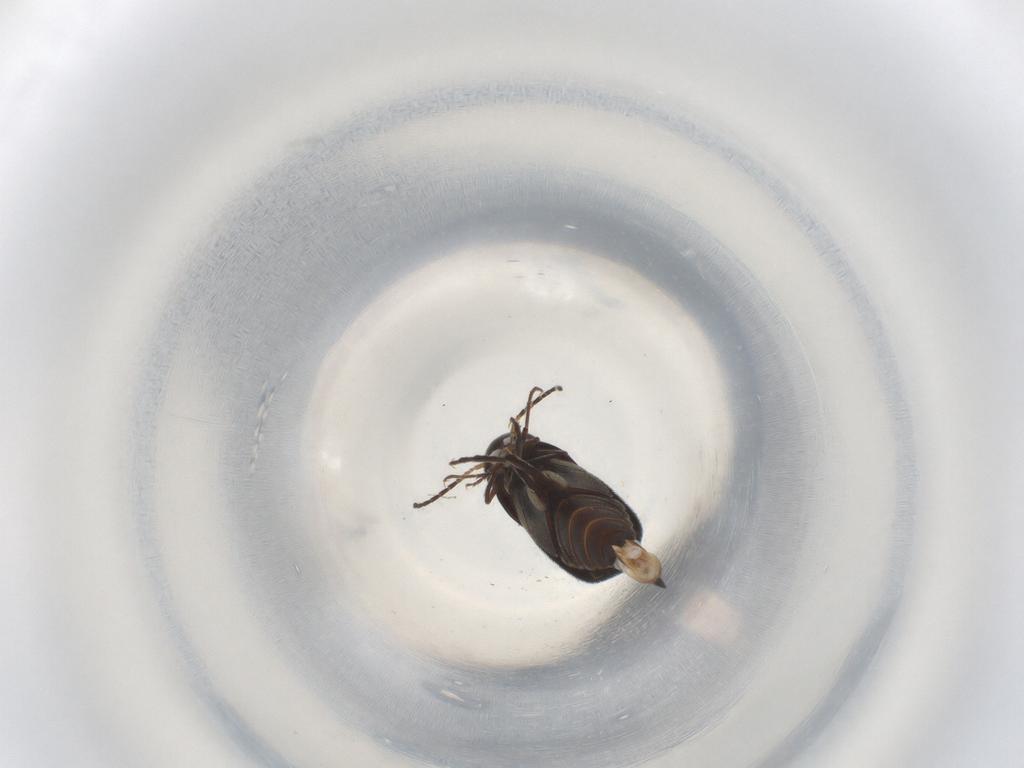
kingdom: Animalia
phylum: Arthropoda
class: Insecta
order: Coleoptera
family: Mordellidae
